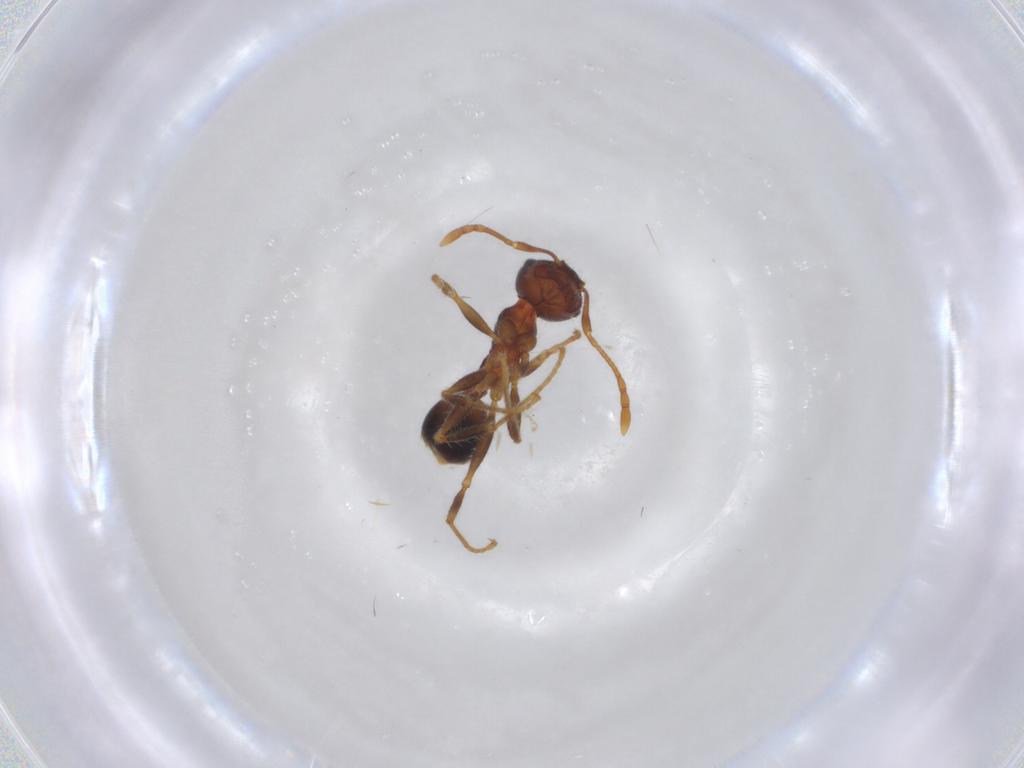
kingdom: Animalia
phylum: Arthropoda
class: Insecta
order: Hymenoptera
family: Formicidae
